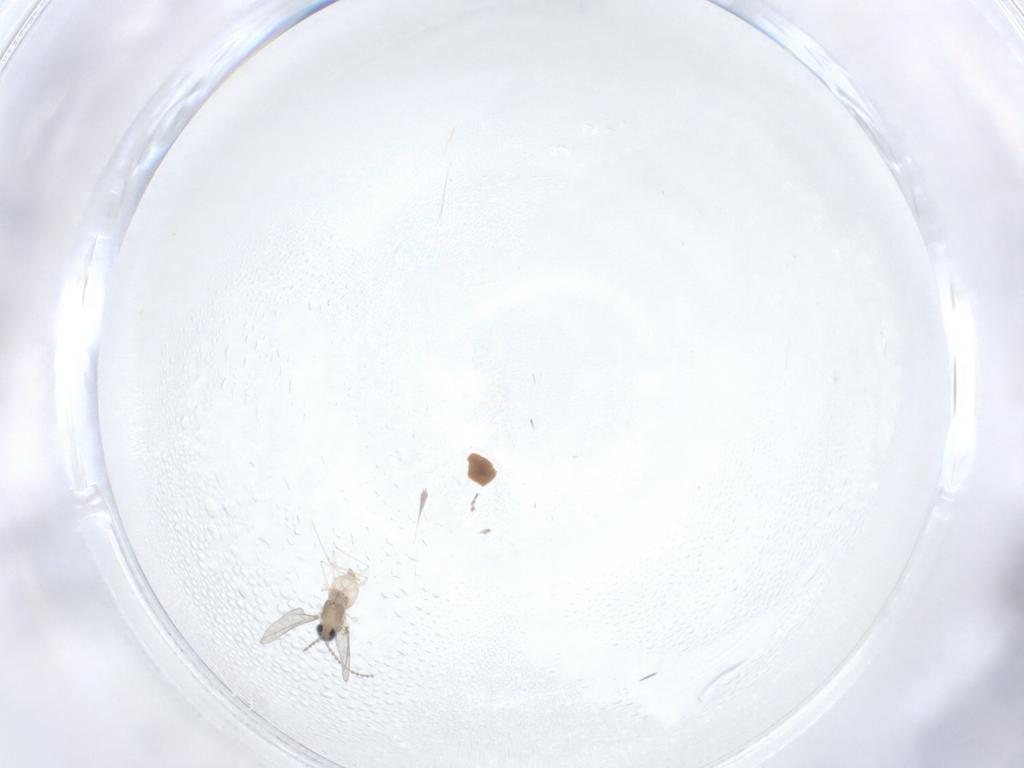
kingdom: Animalia
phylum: Arthropoda
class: Insecta
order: Diptera
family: Phoridae
